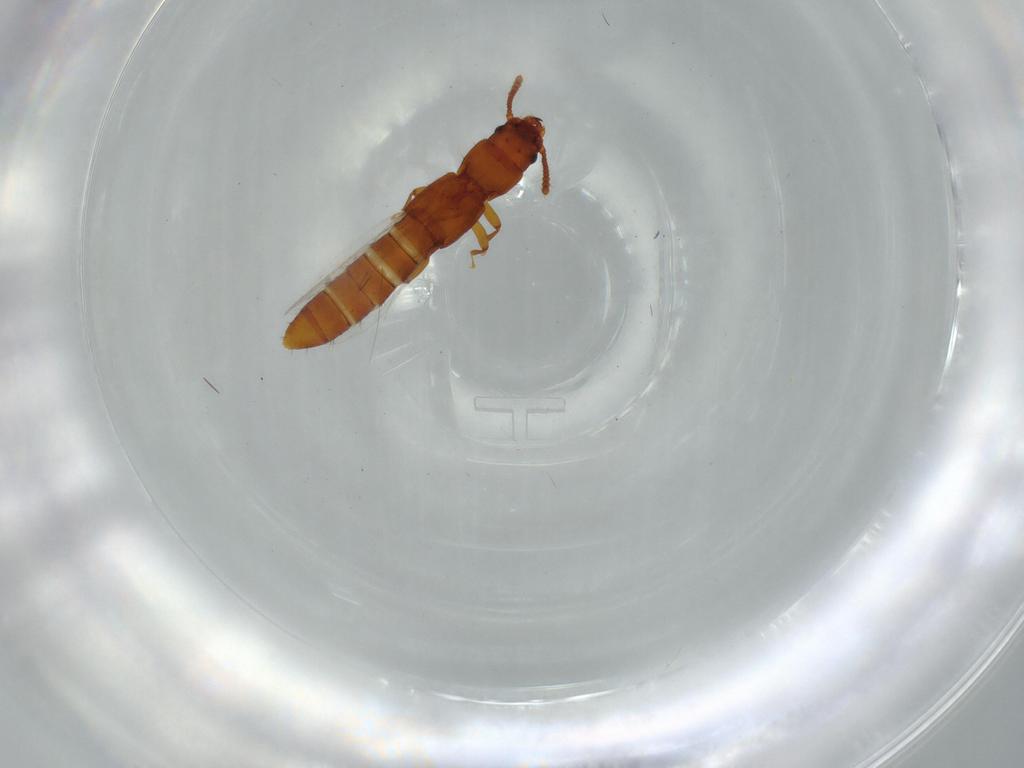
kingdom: Animalia
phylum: Arthropoda
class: Insecta
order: Coleoptera
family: Staphylinidae
